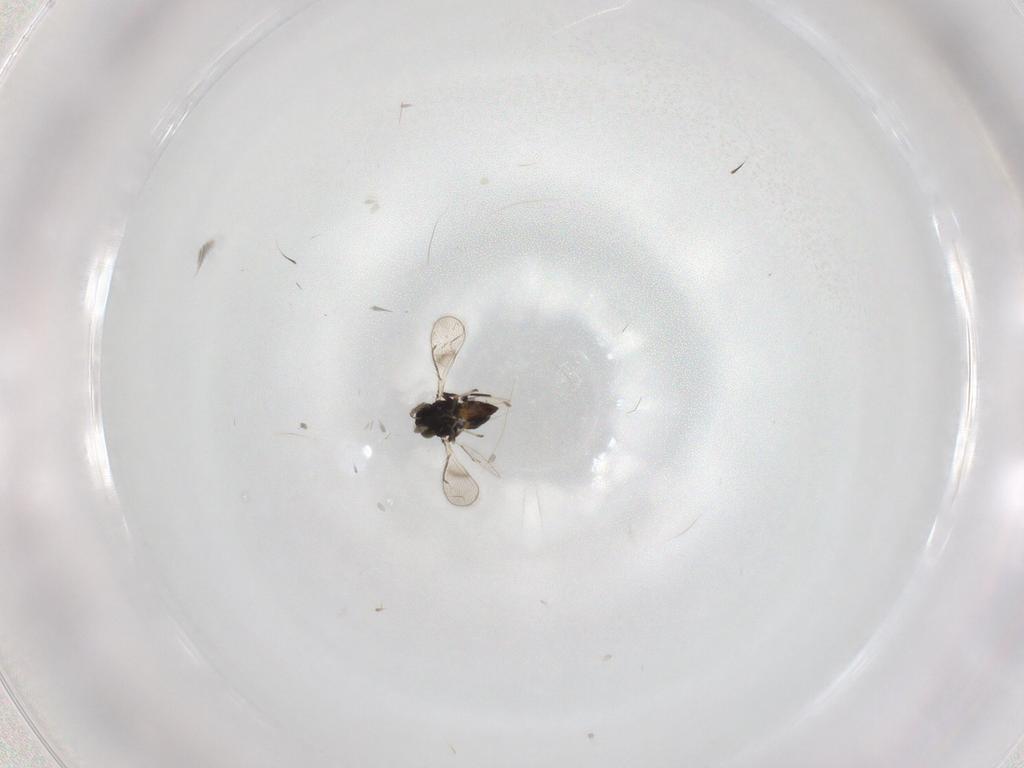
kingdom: Animalia
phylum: Arthropoda
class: Insecta
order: Hymenoptera
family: Eulophidae
